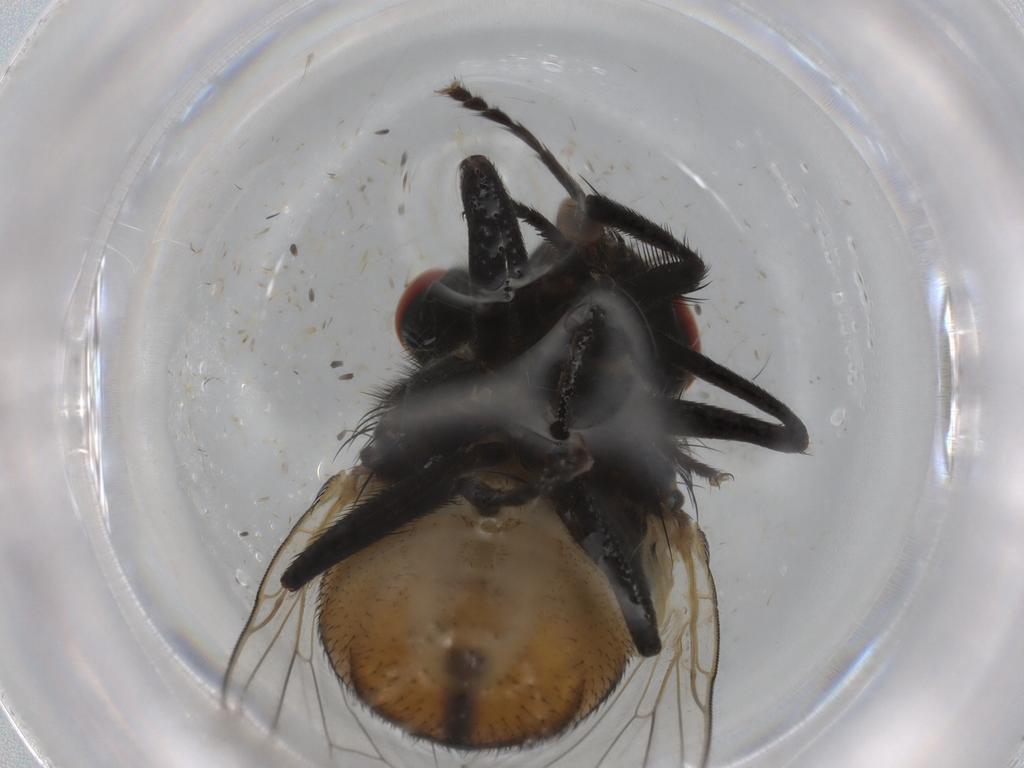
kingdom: Animalia
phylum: Arthropoda
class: Insecta
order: Diptera
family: Muscidae
